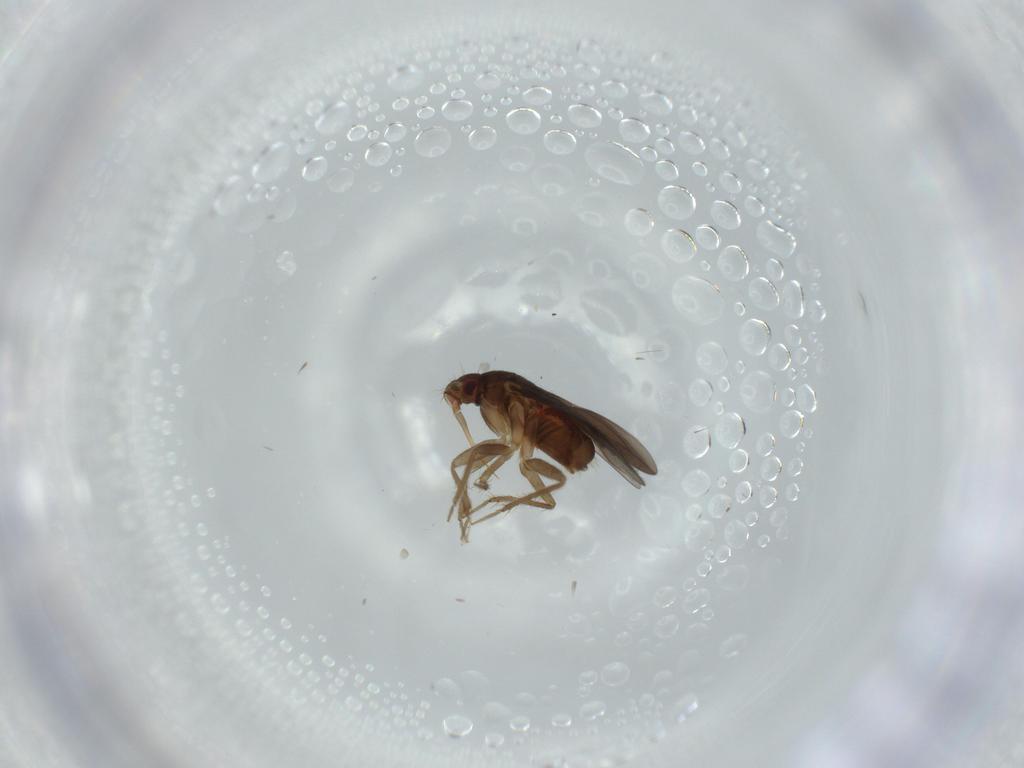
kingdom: Animalia
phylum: Arthropoda
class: Insecta
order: Hemiptera
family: Ceratocombidae
